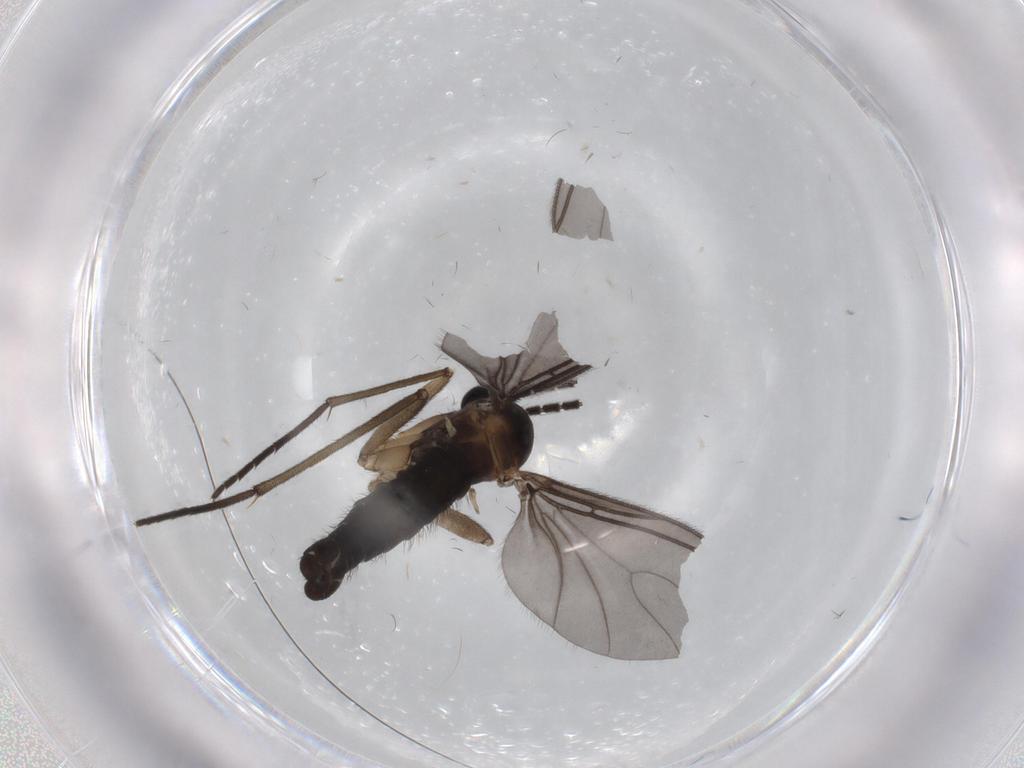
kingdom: Animalia
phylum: Arthropoda
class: Insecta
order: Diptera
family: Sciaridae
